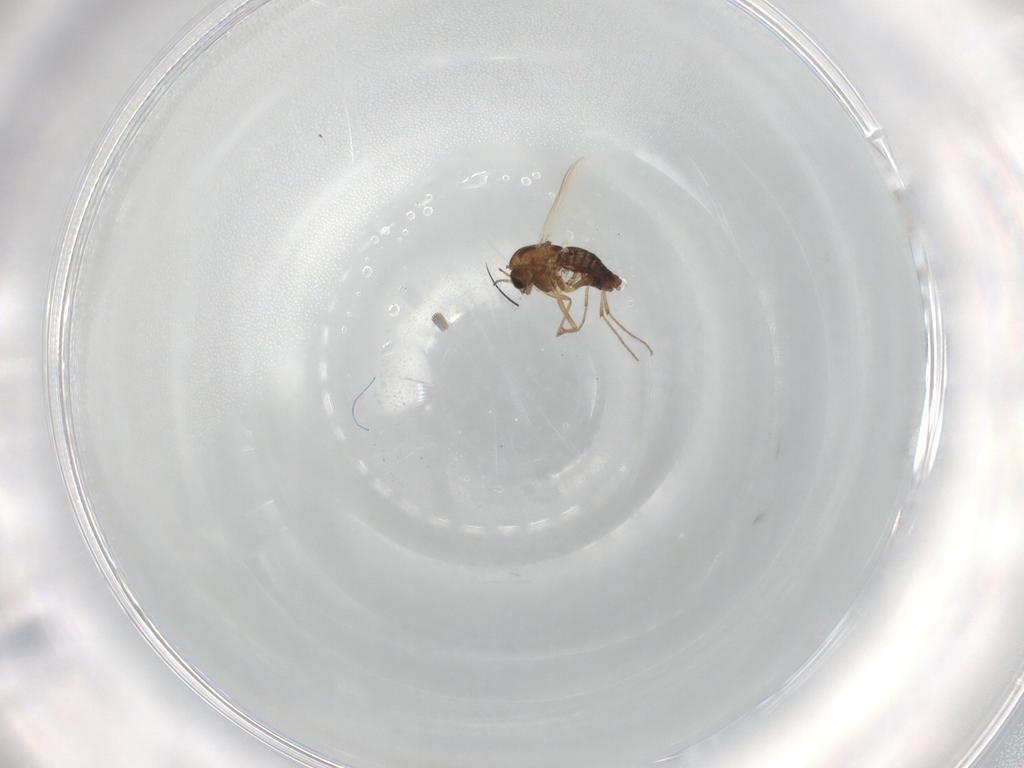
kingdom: Animalia
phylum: Arthropoda
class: Insecta
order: Diptera
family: Chironomidae
